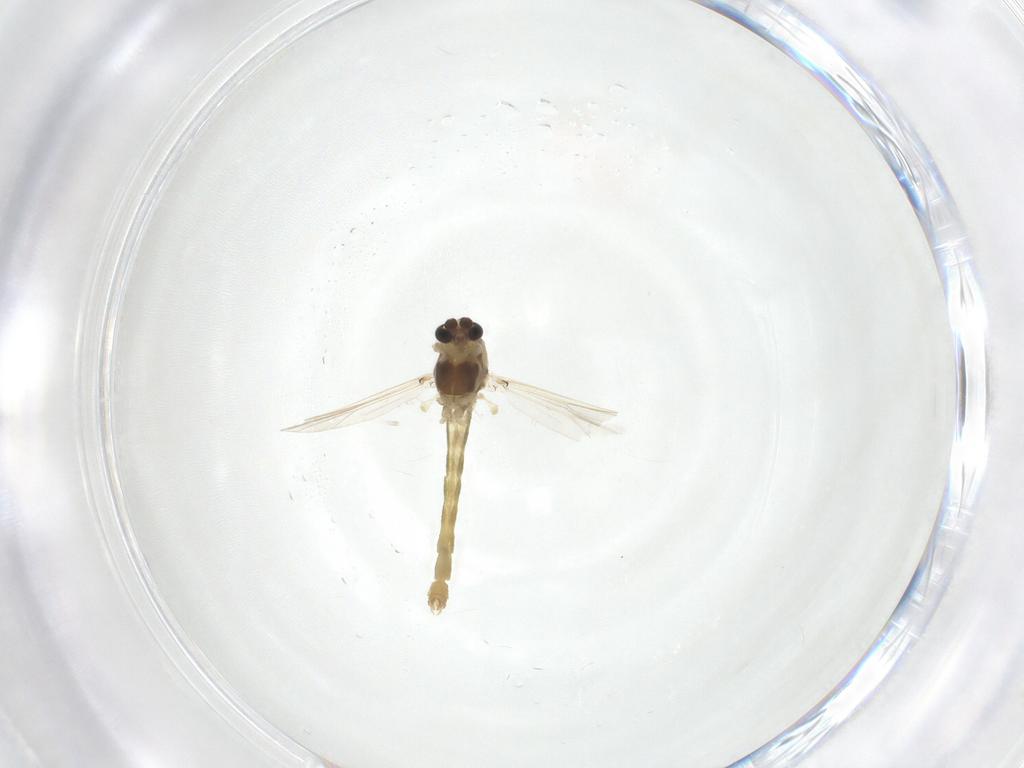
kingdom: Animalia
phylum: Arthropoda
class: Insecta
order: Diptera
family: Chironomidae
